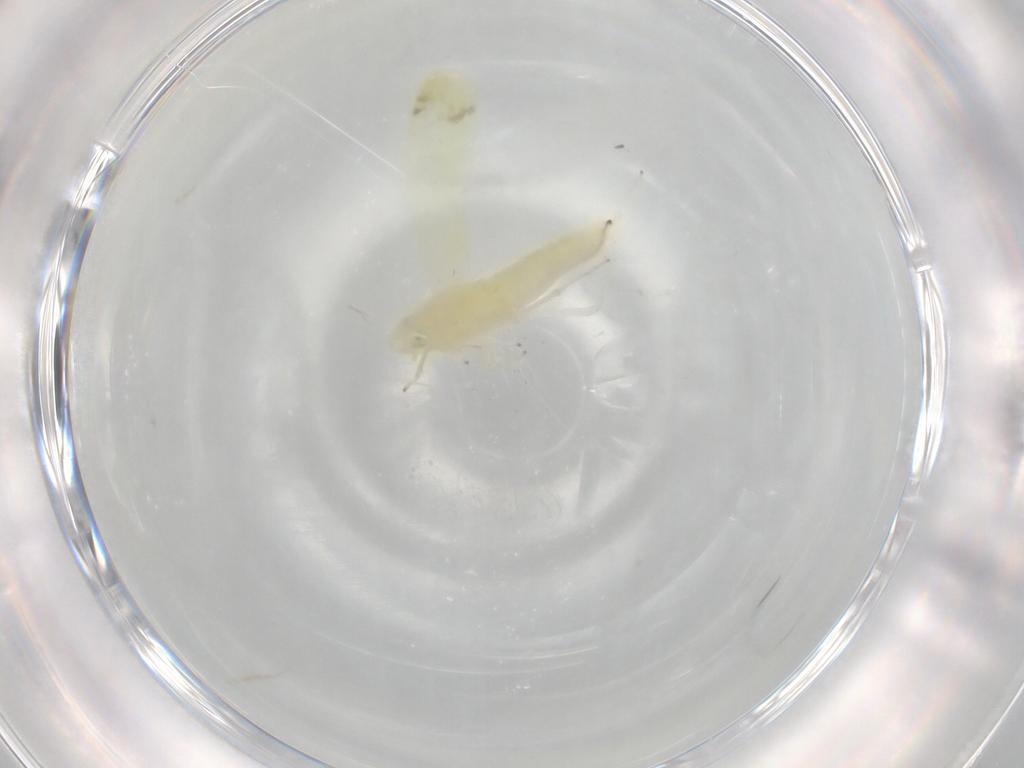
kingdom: Animalia
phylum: Arthropoda
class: Insecta
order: Hemiptera
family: Cicadellidae
